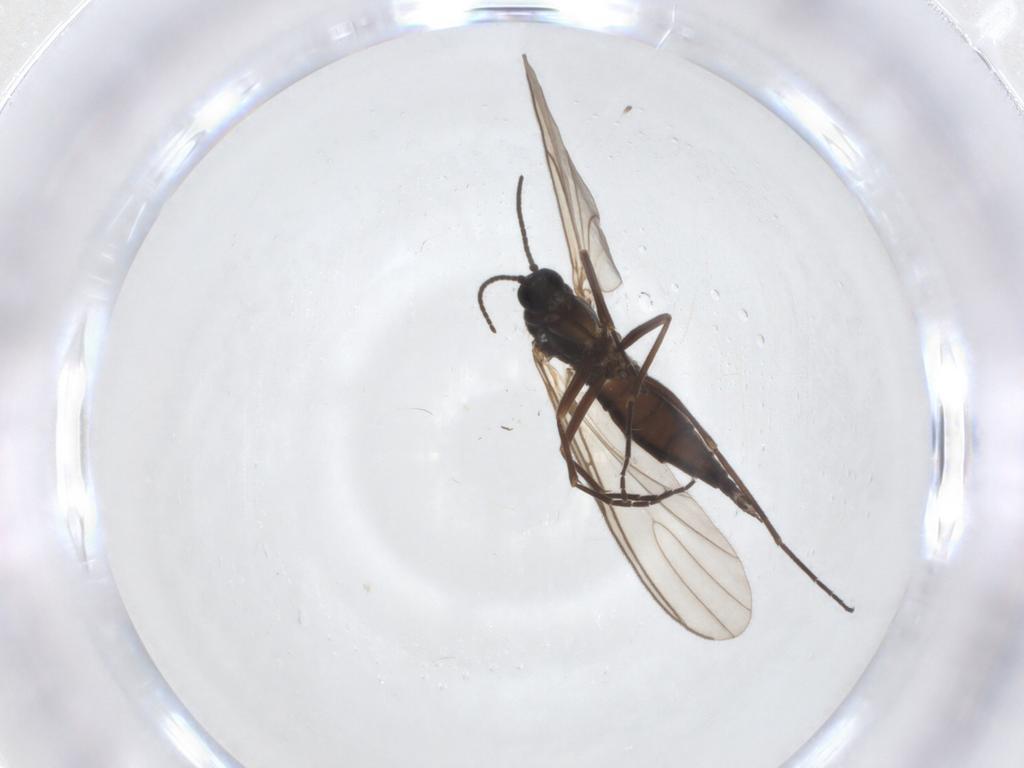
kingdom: Animalia
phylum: Arthropoda
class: Insecta
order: Diptera
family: Sciaridae
